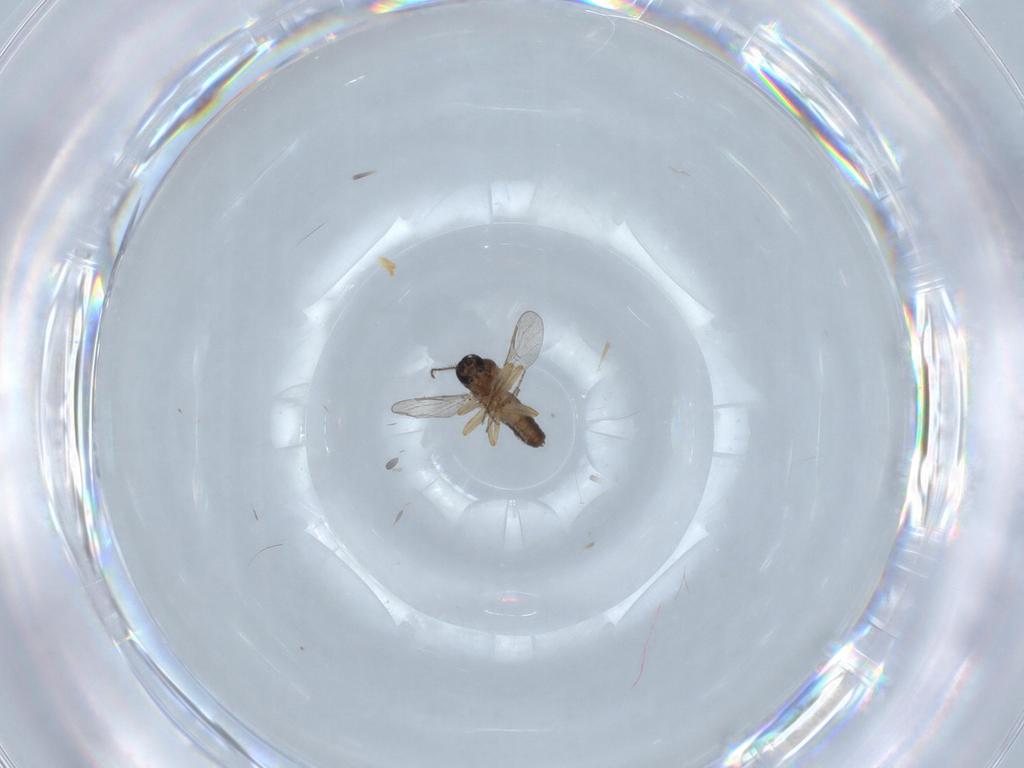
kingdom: Animalia
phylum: Arthropoda
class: Insecta
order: Diptera
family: Ceratopogonidae
